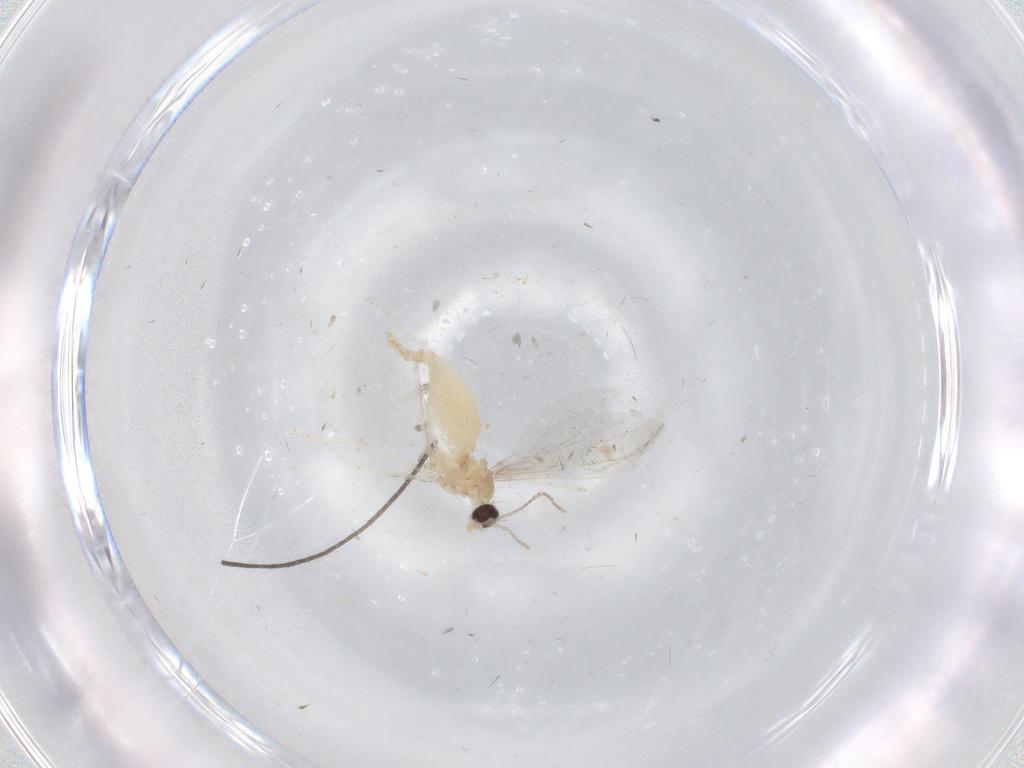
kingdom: Animalia
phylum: Arthropoda
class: Insecta
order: Diptera
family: Cecidomyiidae
